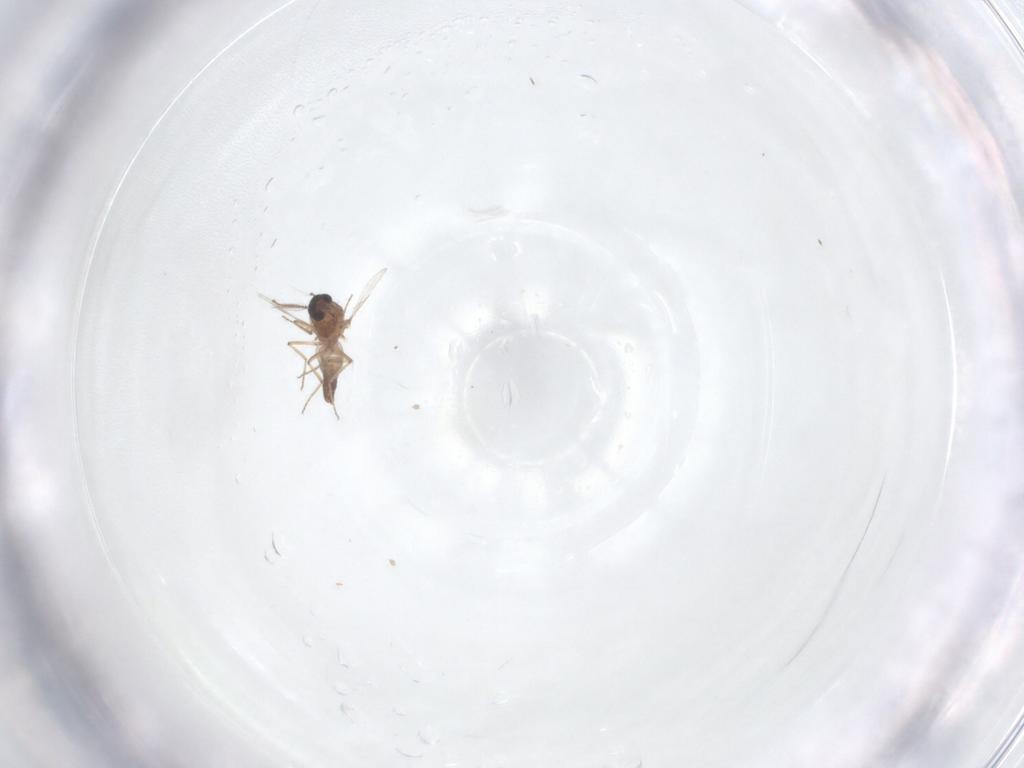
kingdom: Animalia
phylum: Arthropoda
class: Insecta
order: Diptera
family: Ceratopogonidae
